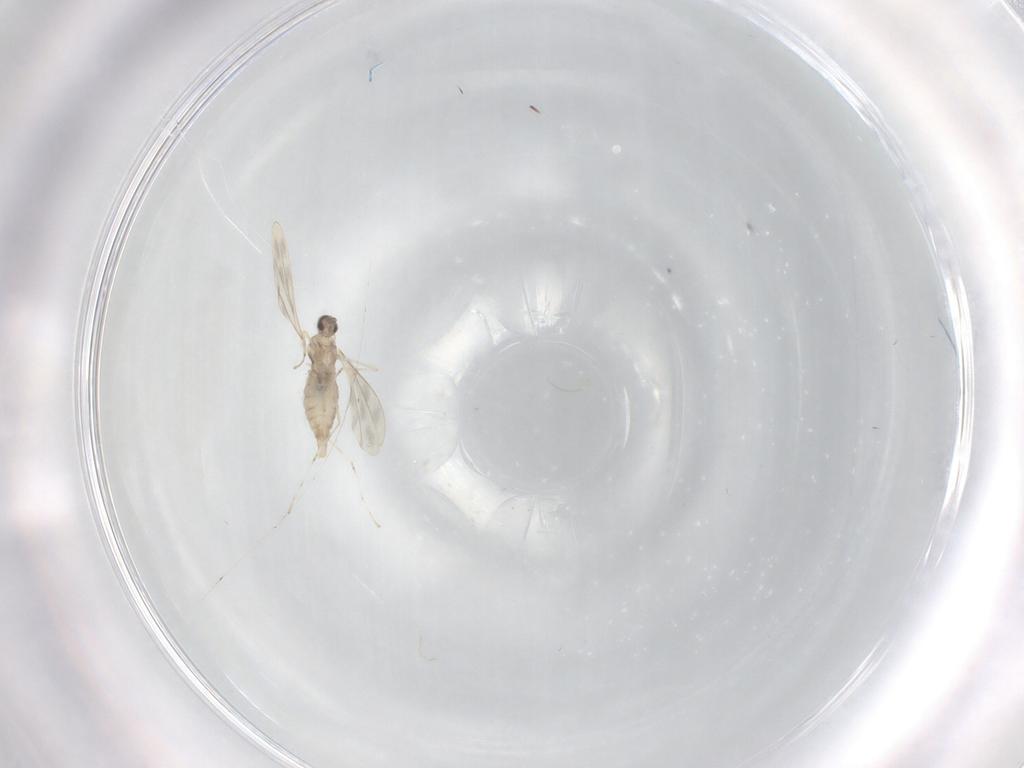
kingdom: Animalia
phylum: Arthropoda
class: Insecta
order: Diptera
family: Cecidomyiidae
